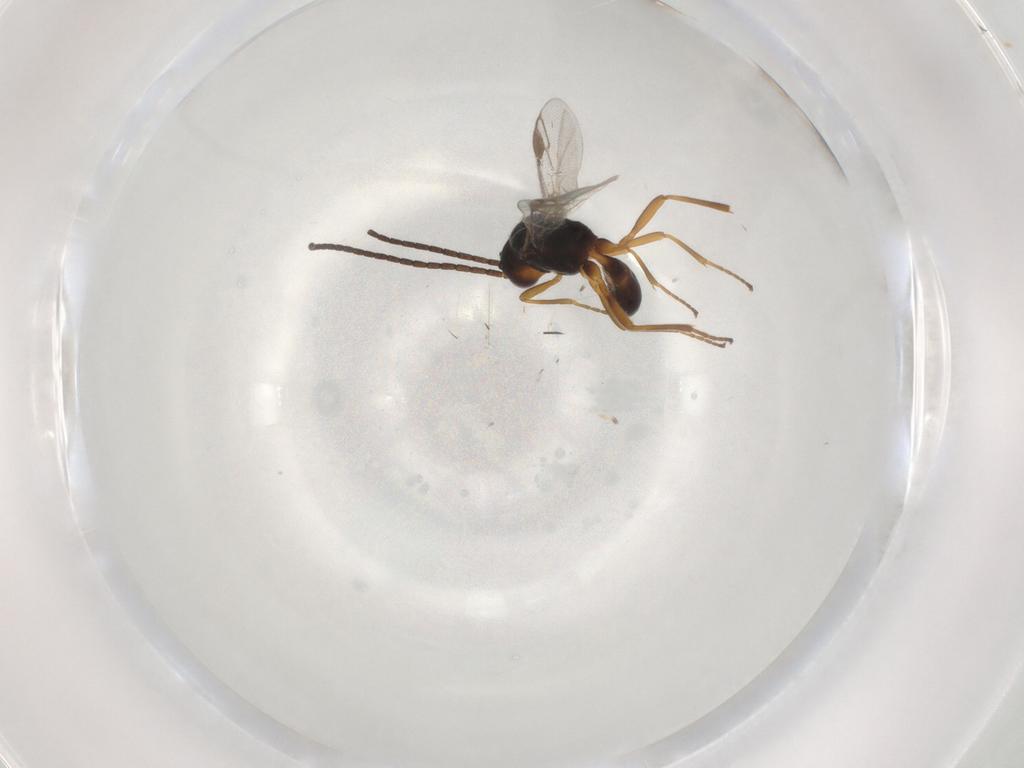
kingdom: Animalia
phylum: Arthropoda
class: Insecta
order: Hymenoptera
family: Braconidae
